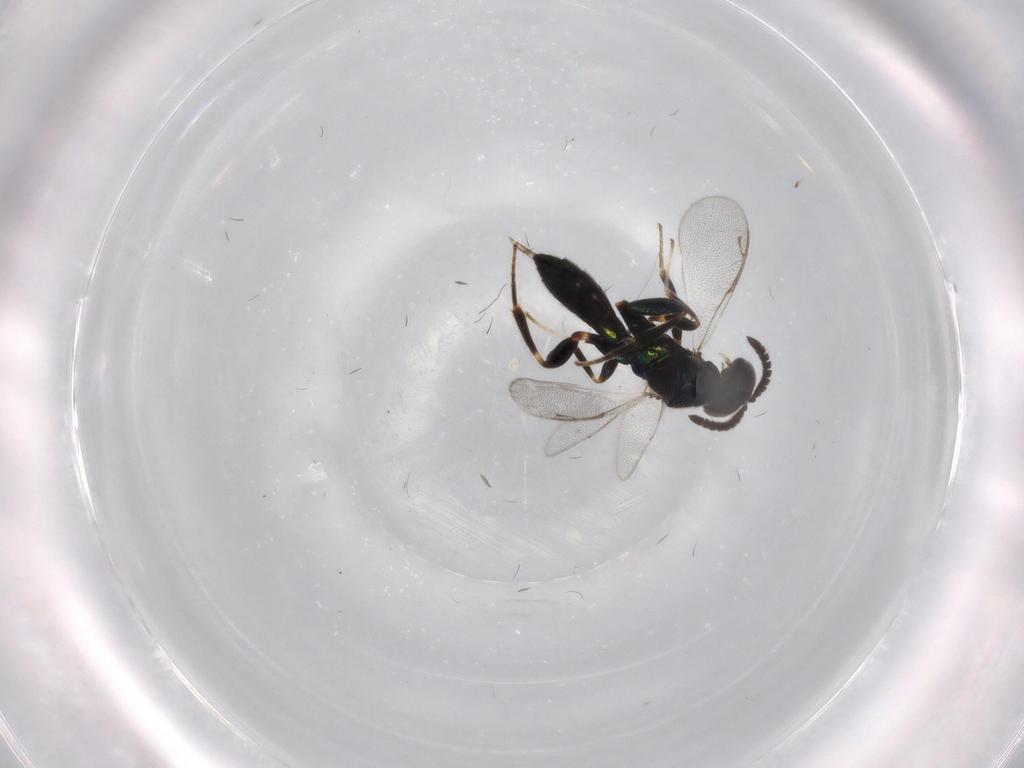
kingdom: Animalia
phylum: Arthropoda
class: Insecta
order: Hymenoptera
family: Cleonyminae
